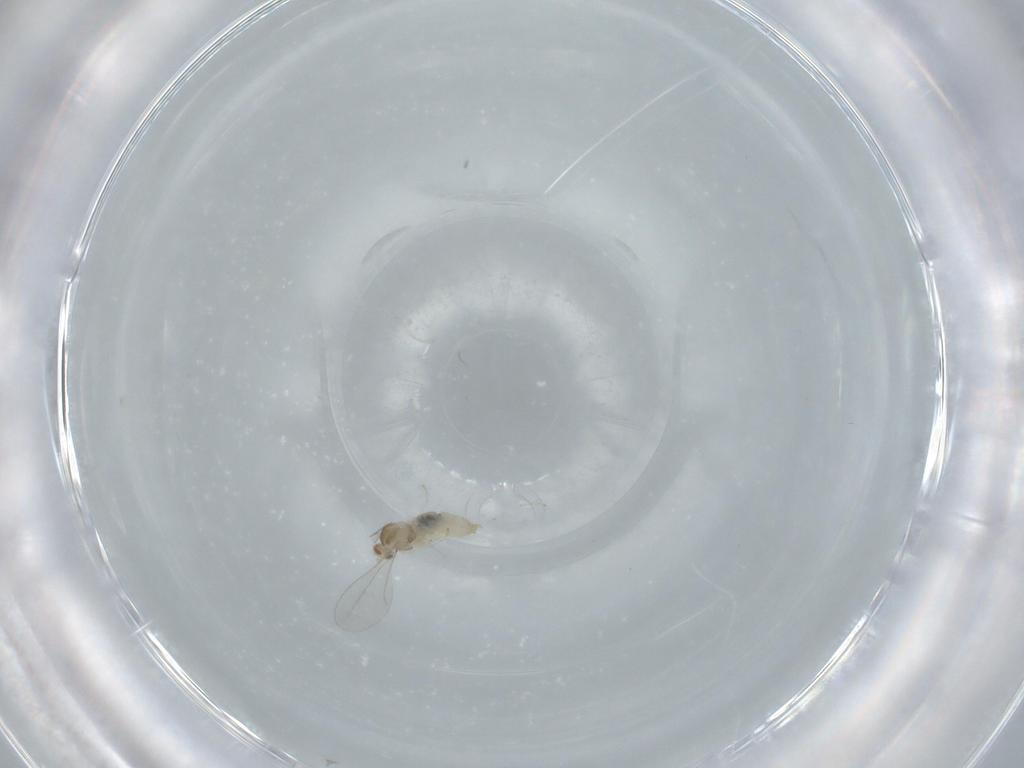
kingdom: Animalia
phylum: Arthropoda
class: Insecta
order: Diptera
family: Cecidomyiidae
